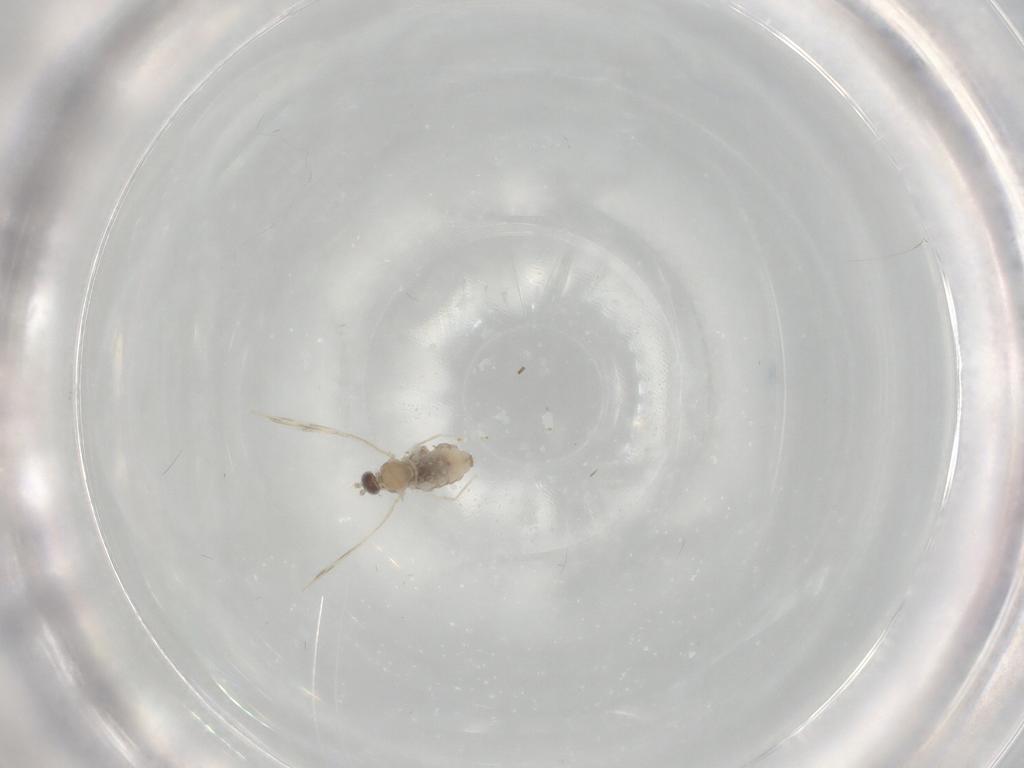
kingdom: Animalia
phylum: Arthropoda
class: Insecta
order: Diptera
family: Cecidomyiidae
